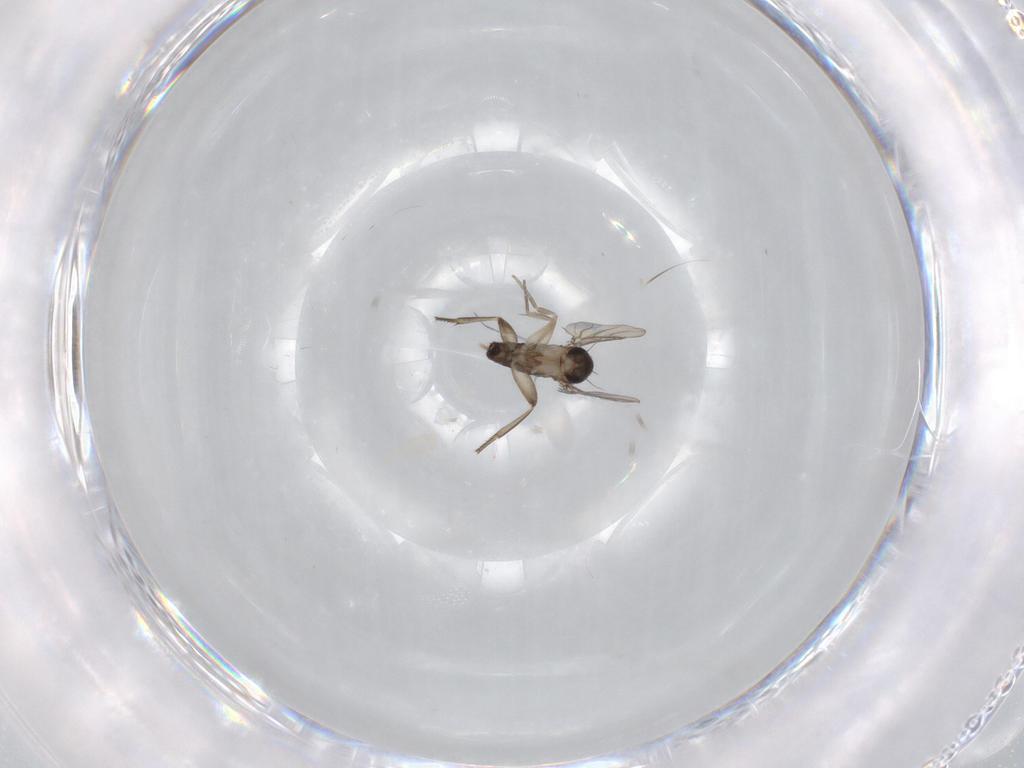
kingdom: Animalia
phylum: Arthropoda
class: Insecta
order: Diptera
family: Phoridae
